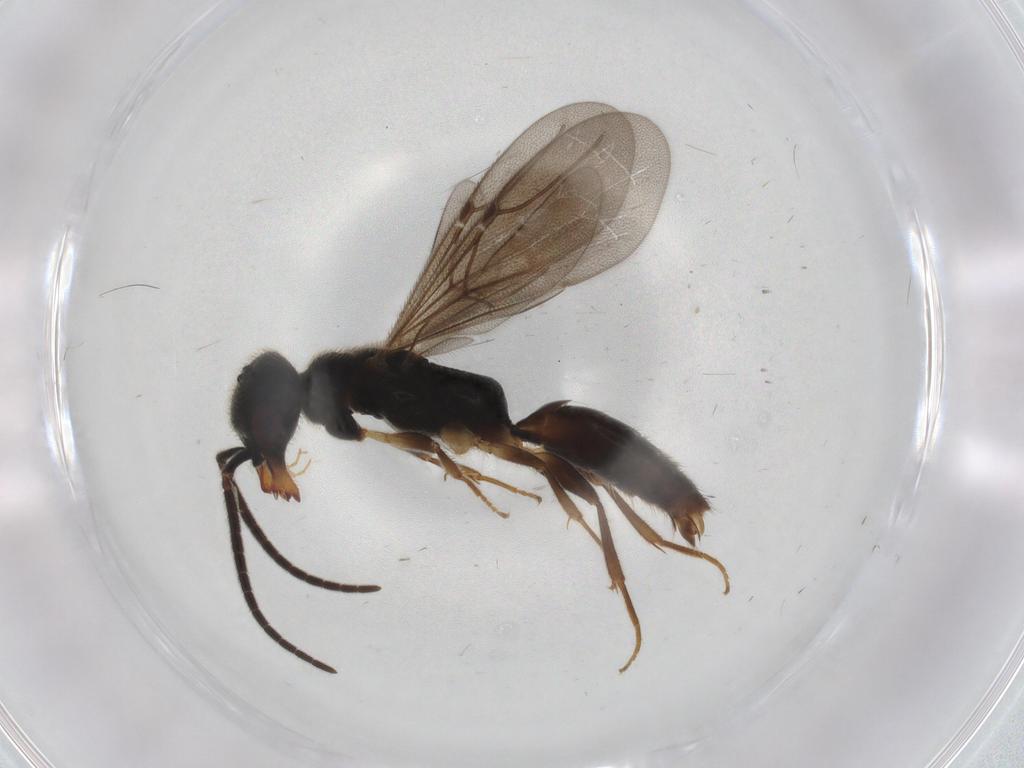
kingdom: Animalia
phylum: Arthropoda
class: Insecta
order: Hymenoptera
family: Bethylidae
